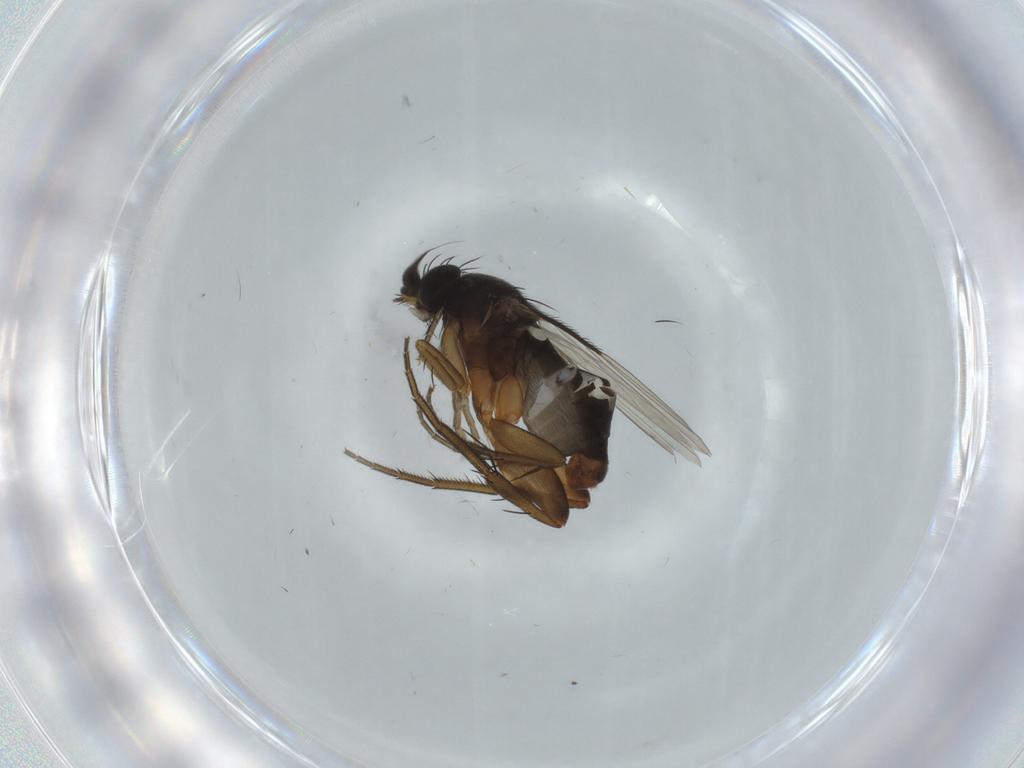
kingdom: Animalia
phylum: Arthropoda
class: Insecta
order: Diptera
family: Phoridae
